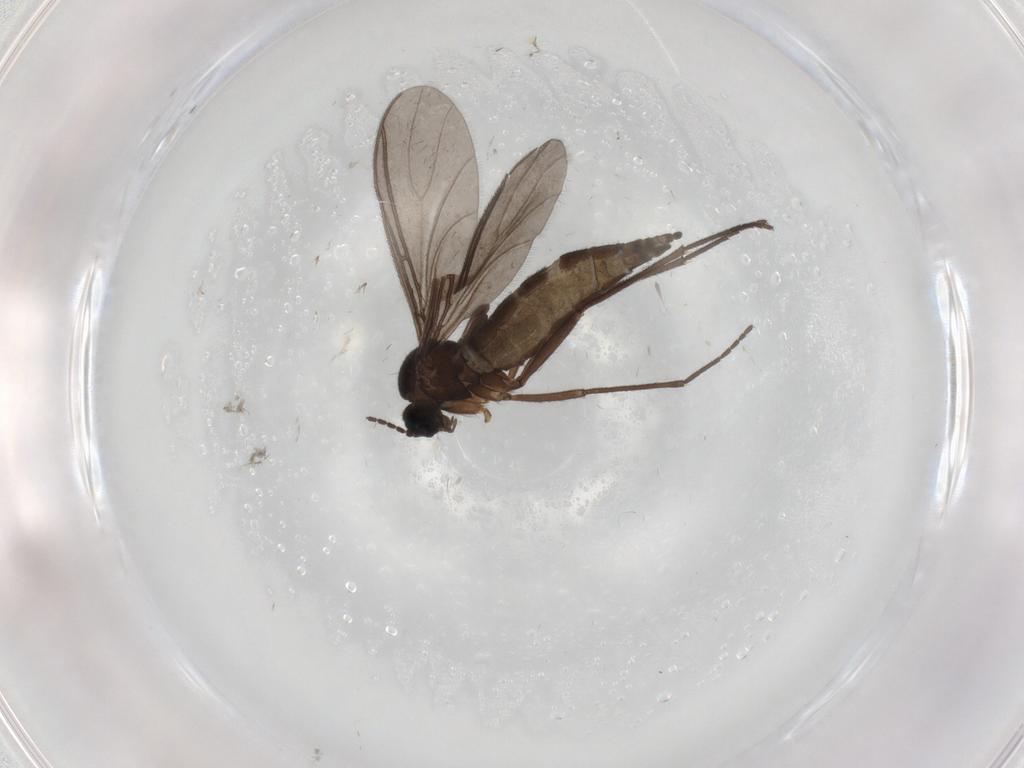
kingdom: Animalia
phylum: Arthropoda
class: Insecta
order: Diptera
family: Sciaridae
